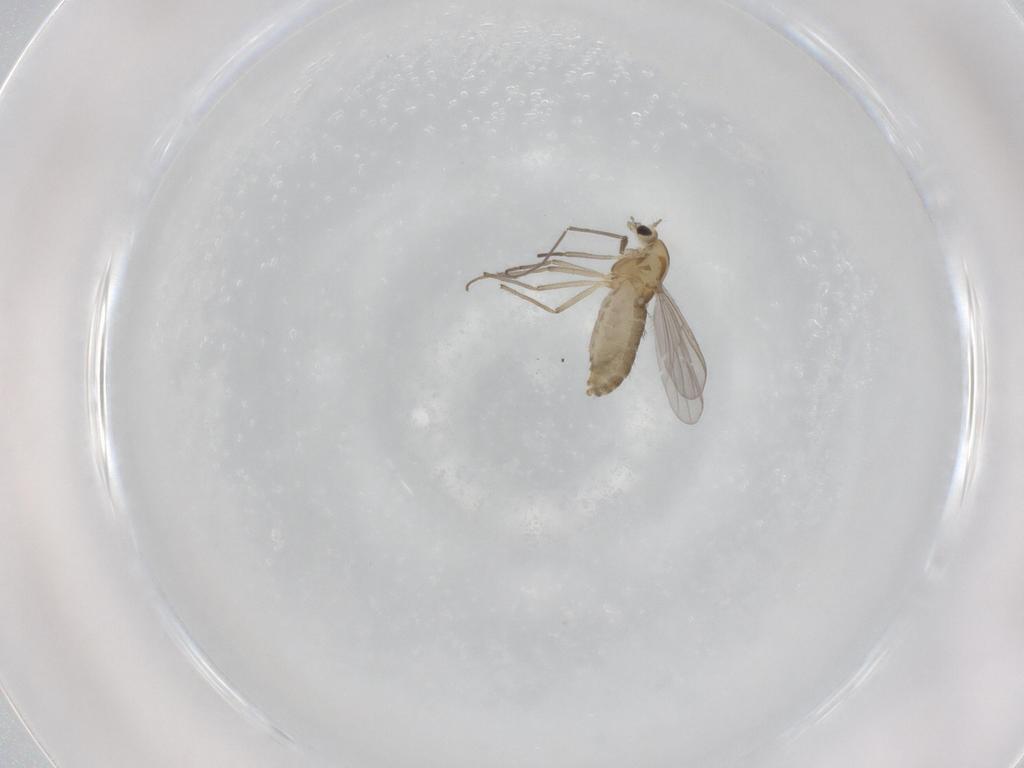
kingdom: Animalia
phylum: Arthropoda
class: Insecta
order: Diptera
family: Chironomidae
